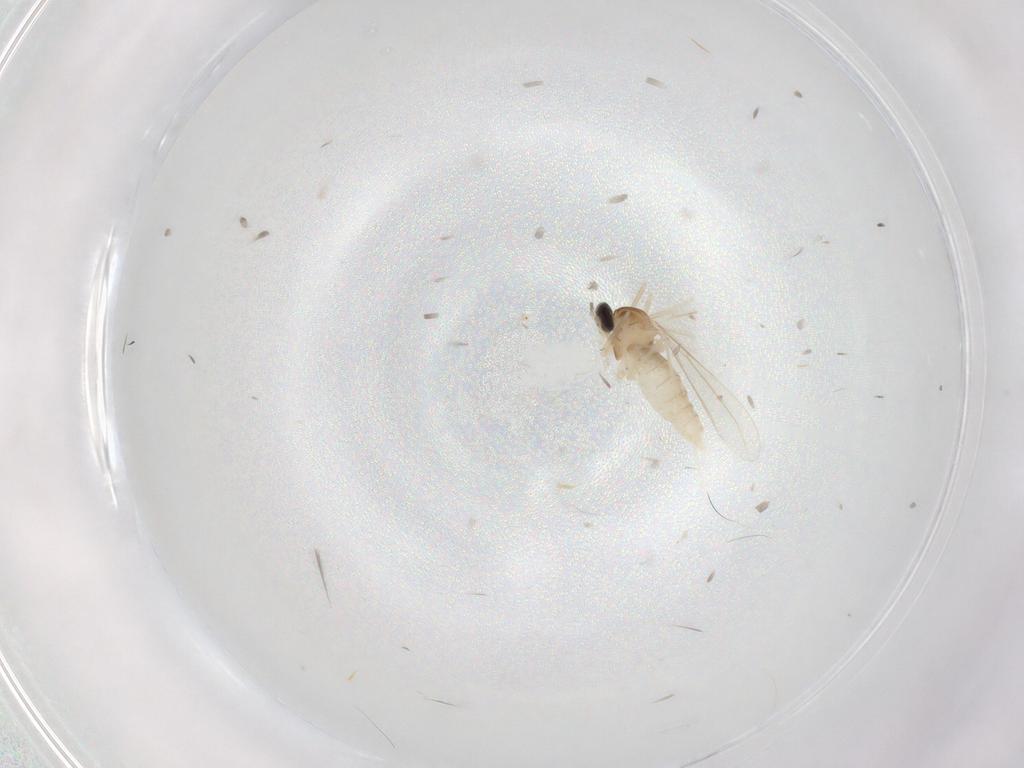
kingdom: Animalia
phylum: Arthropoda
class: Insecta
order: Diptera
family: Cecidomyiidae
